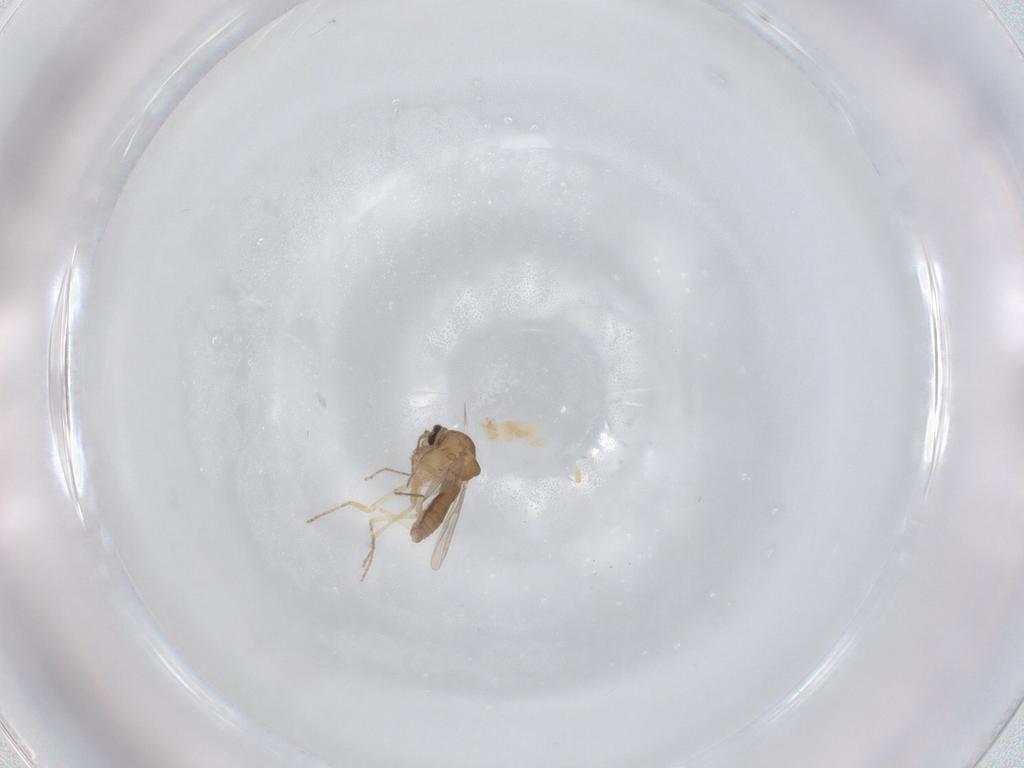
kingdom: Animalia
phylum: Arthropoda
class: Insecta
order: Diptera
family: Ceratopogonidae
